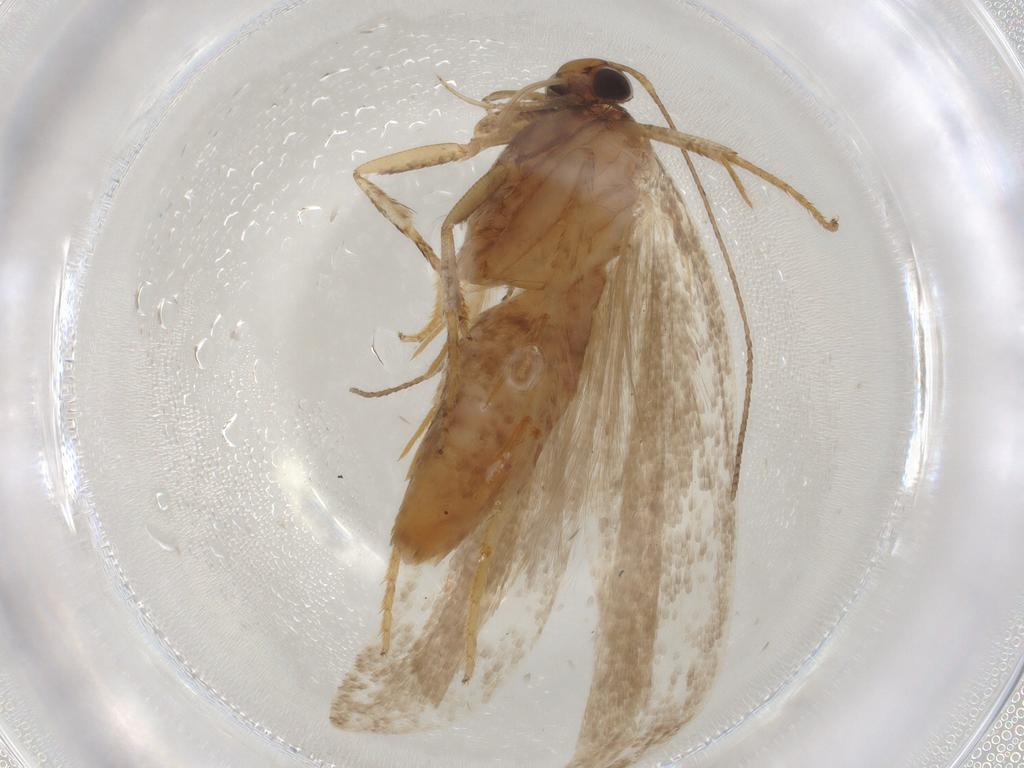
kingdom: Animalia
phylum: Arthropoda
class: Insecta
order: Lepidoptera
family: Gelechiidae
